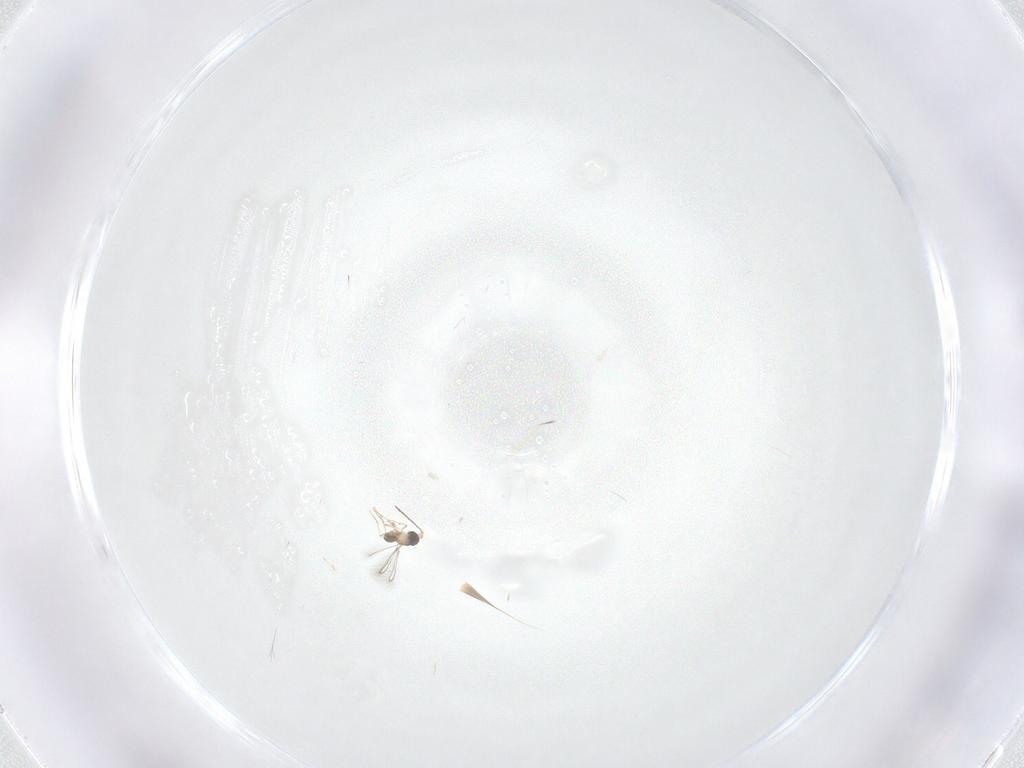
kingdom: Animalia
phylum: Arthropoda
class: Insecta
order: Hymenoptera
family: Mymaridae
